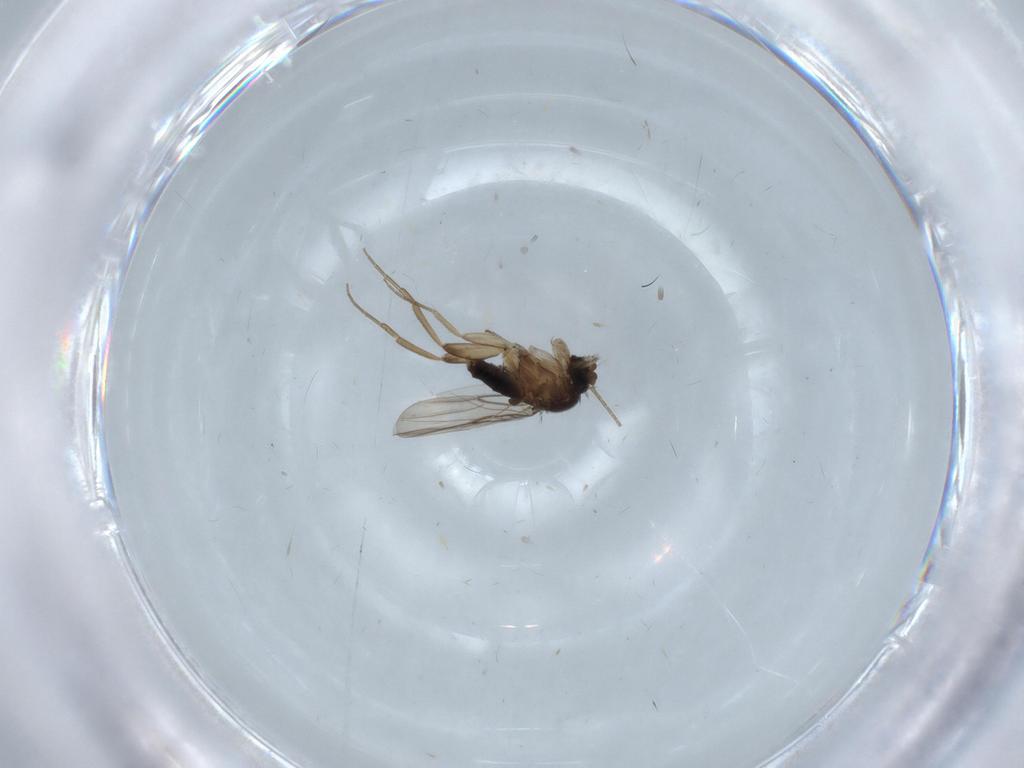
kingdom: Animalia
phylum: Arthropoda
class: Insecta
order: Diptera
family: Phoridae
